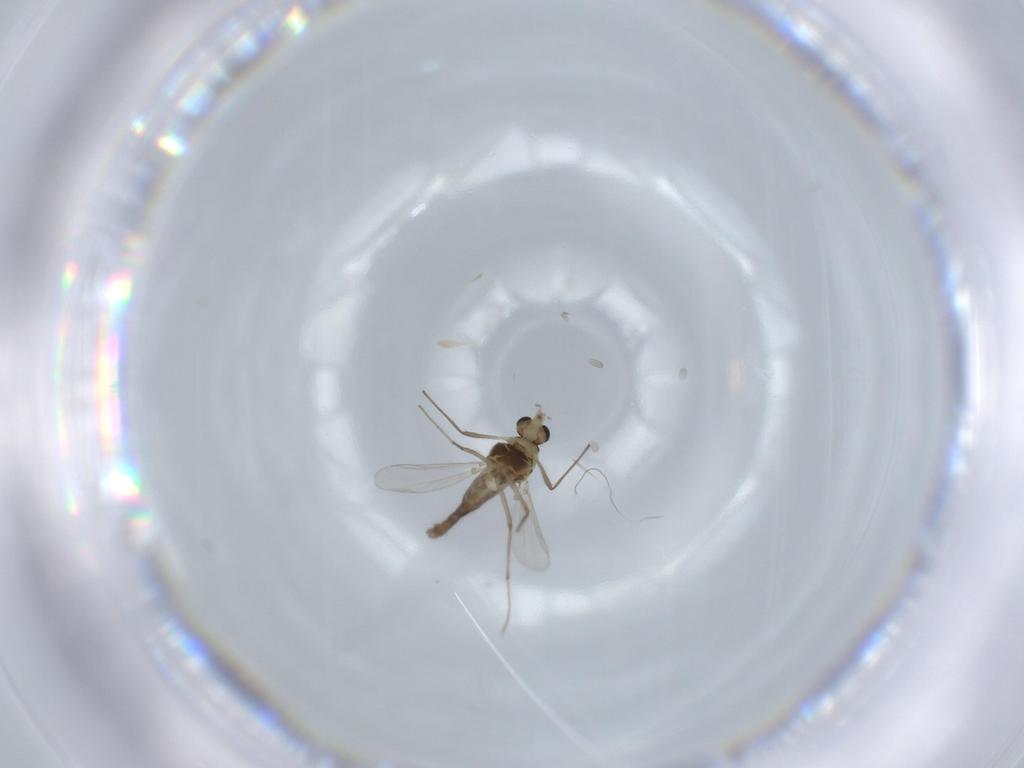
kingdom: Animalia
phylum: Arthropoda
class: Insecta
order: Diptera
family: Chironomidae
